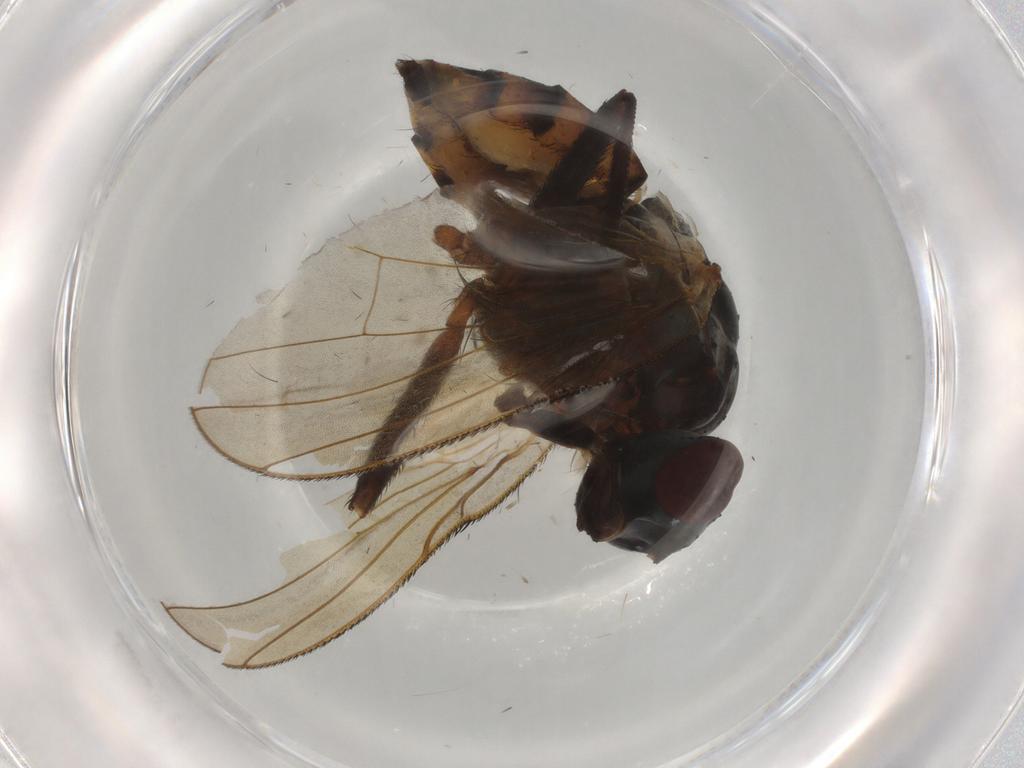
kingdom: Animalia
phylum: Arthropoda
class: Insecta
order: Diptera
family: Anthomyiidae
